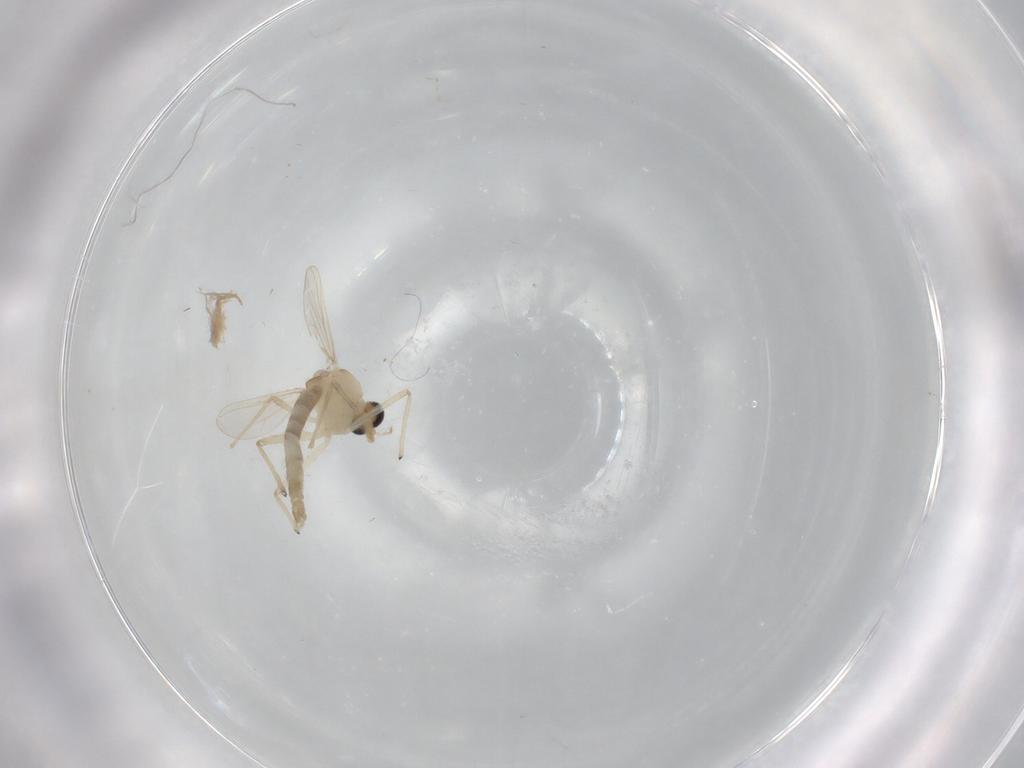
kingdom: Animalia
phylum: Arthropoda
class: Insecta
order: Diptera
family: Chironomidae
